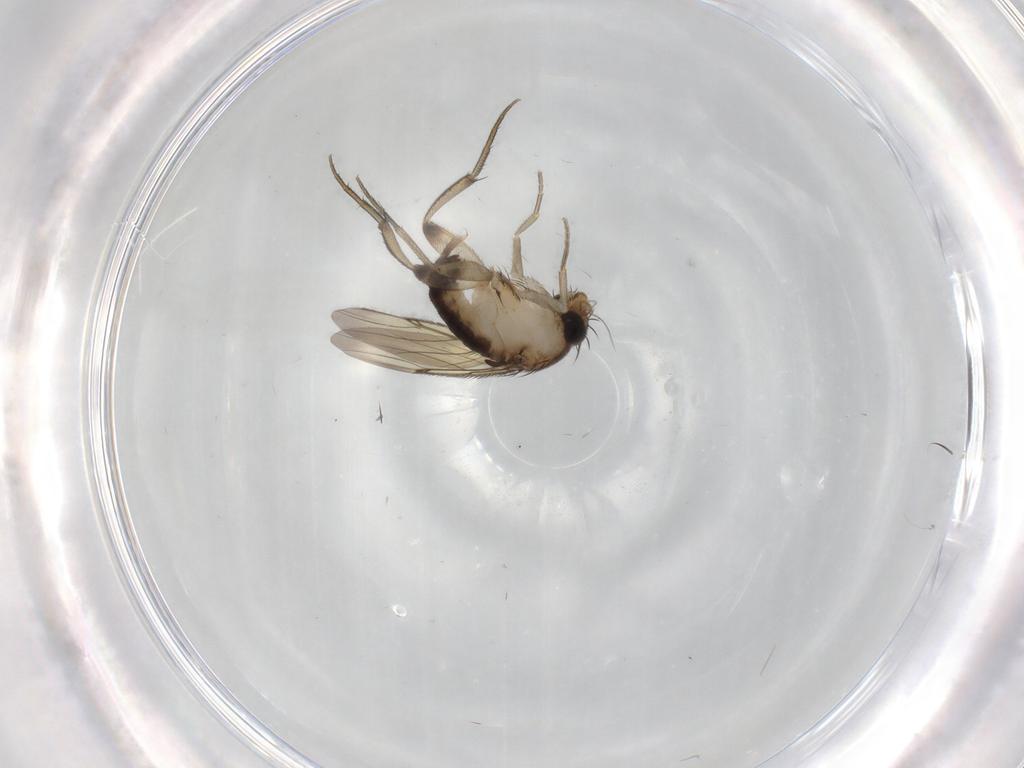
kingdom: Animalia
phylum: Arthropoda
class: Insecta
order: Diptera
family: Phoridae
